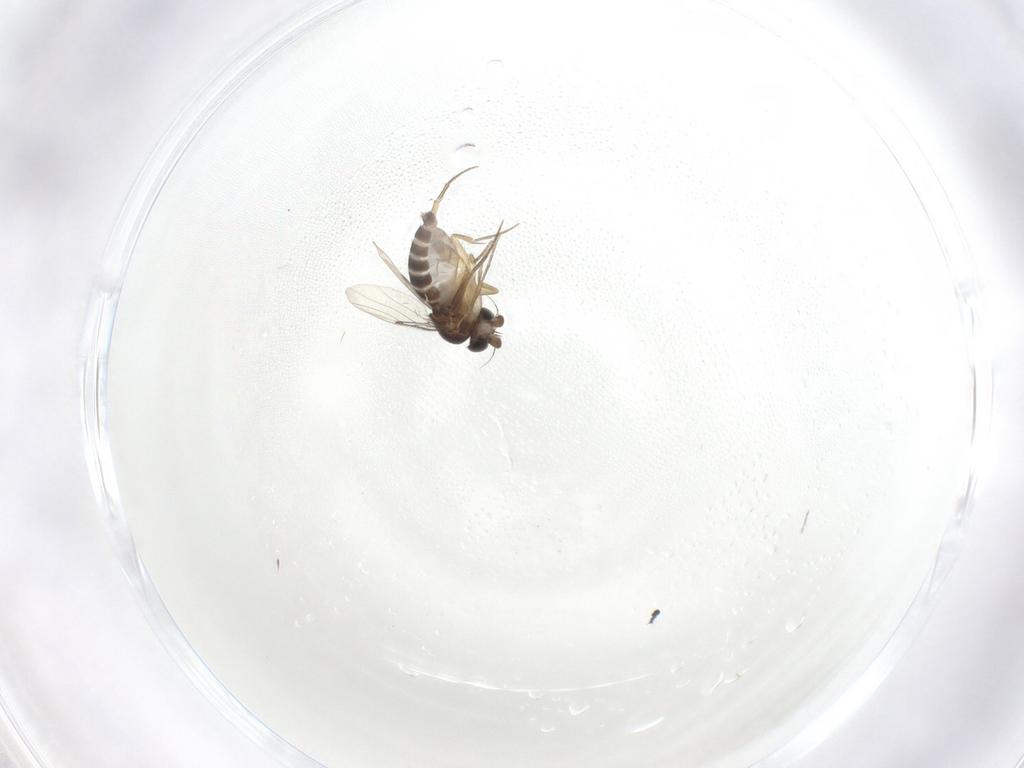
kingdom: Animalia
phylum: Arthropoda
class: Insecta
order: Diptera
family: Phoridae
